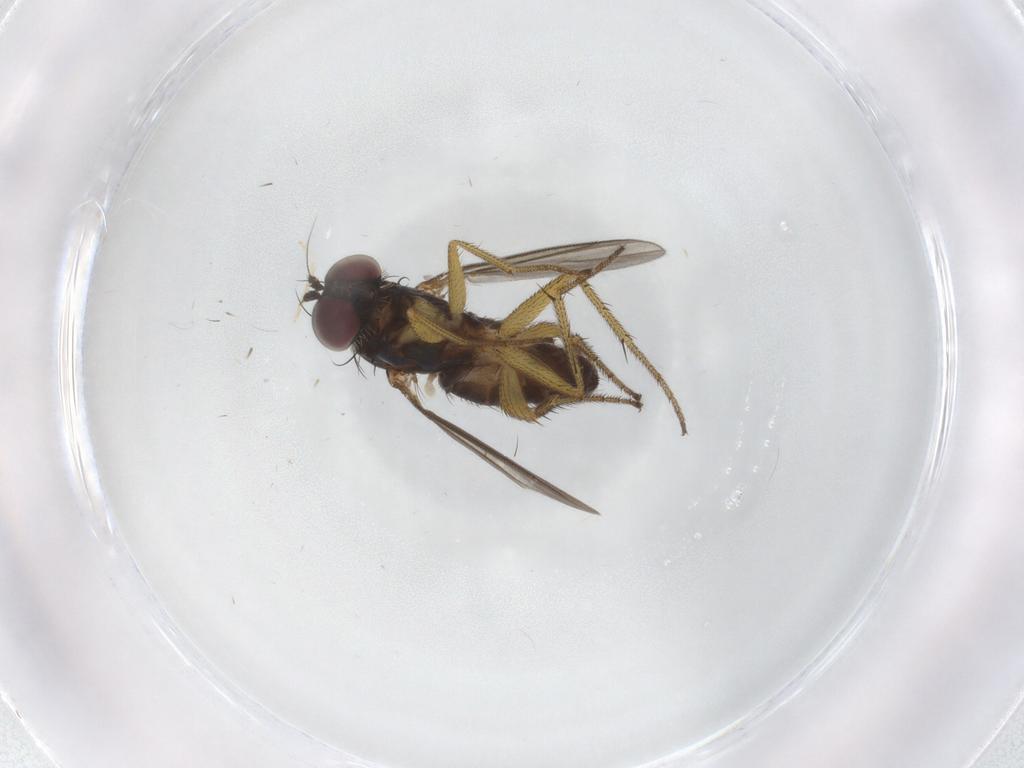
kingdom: Animalia
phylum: Arthropoda
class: Insecta
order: Diptera
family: Dolichopodidae
